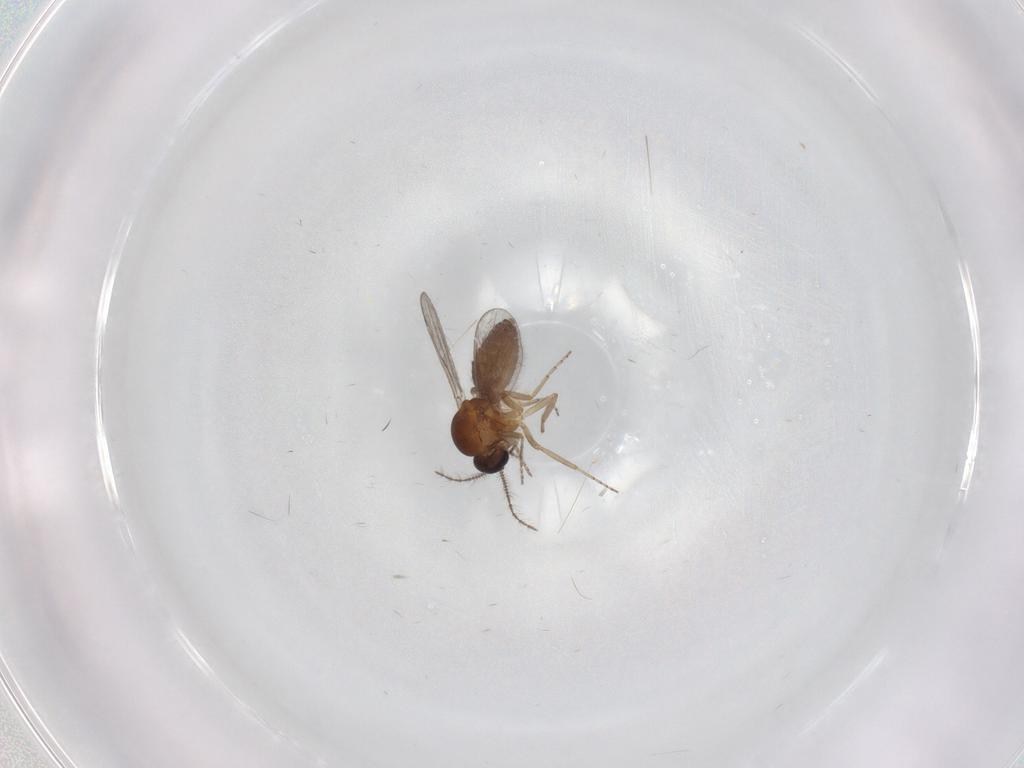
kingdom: Animalia
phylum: Arthropoda
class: Insecta
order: Diptera
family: Ceratopogonidae
